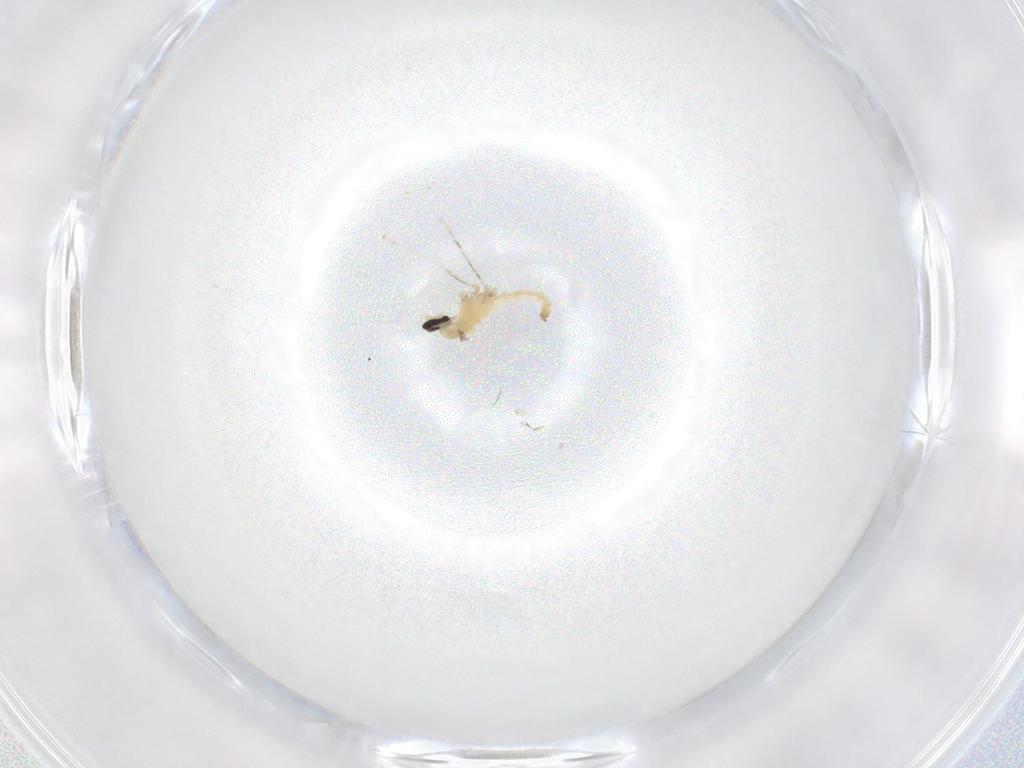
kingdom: Animalia
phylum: Arthropoda
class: Insecta
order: Diptera
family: Cecidomyiidae
